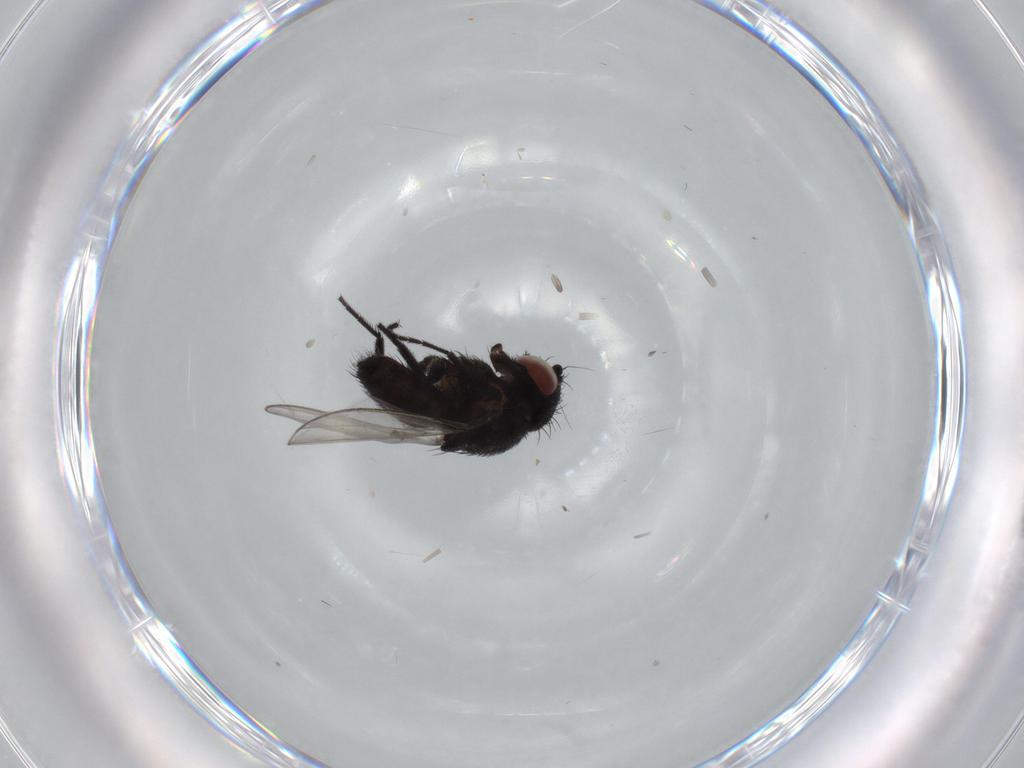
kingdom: Animalia
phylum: Arthropoda
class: Insecta
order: Diptera
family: Milichiidae
